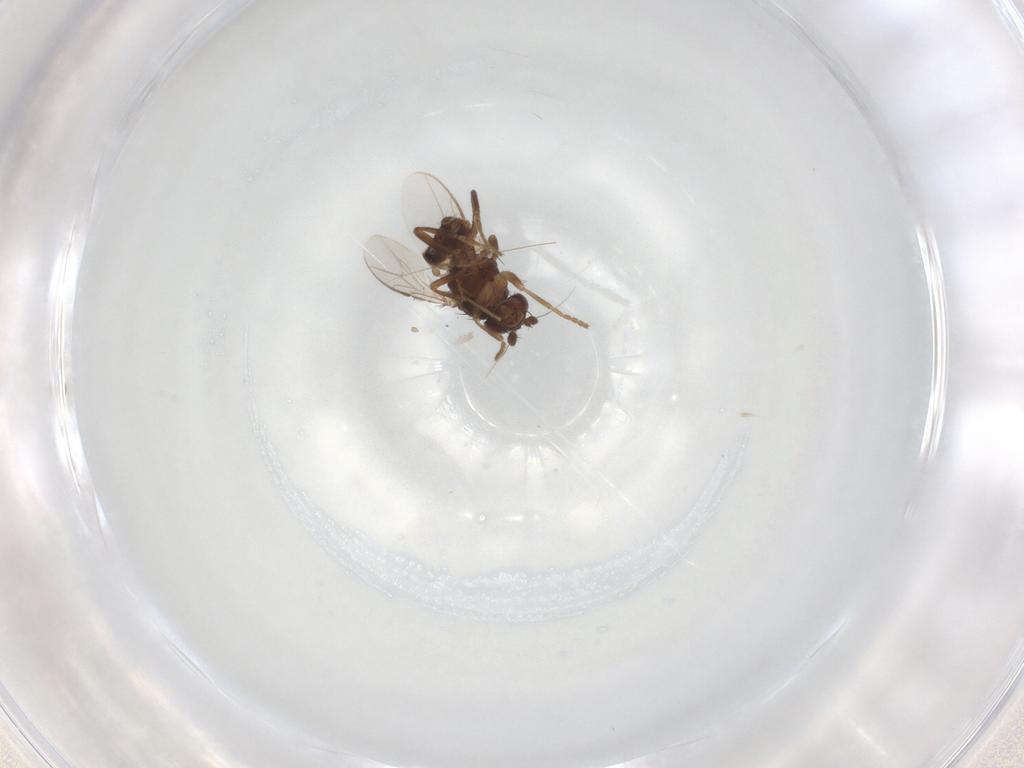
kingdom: Animalia
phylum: Arthropoda
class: Insecta
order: Diptera
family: Sphaeroceridae
